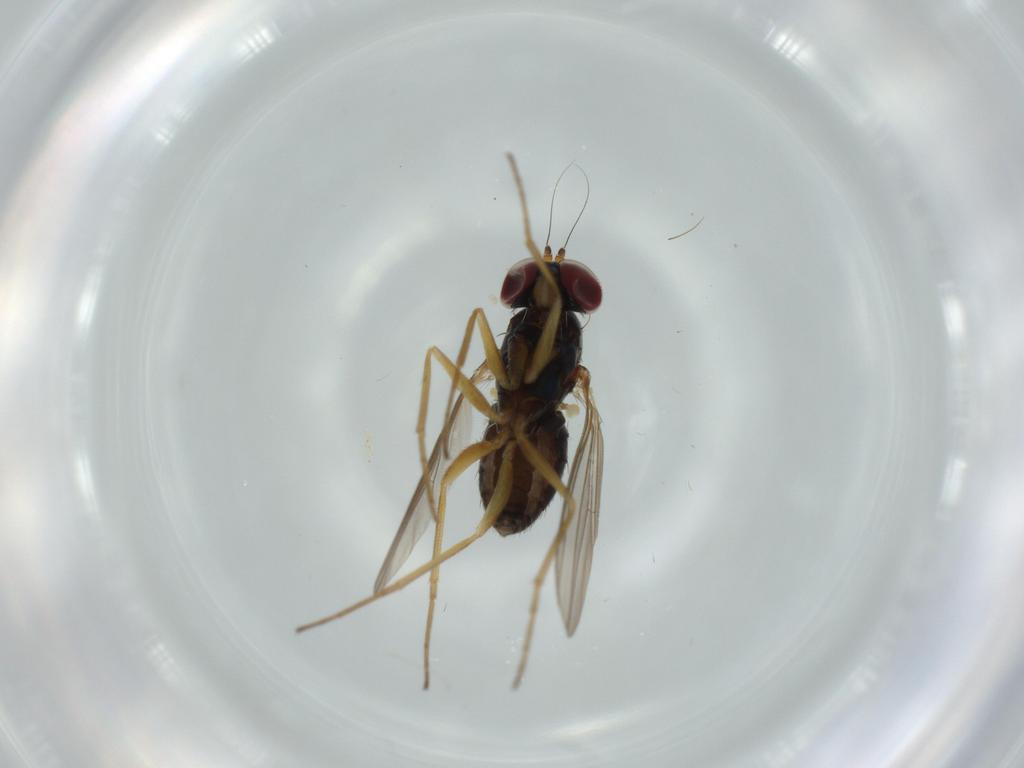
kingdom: Animalia
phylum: Arthropoda
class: Insecta
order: Diptera
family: Dolichopodidae
